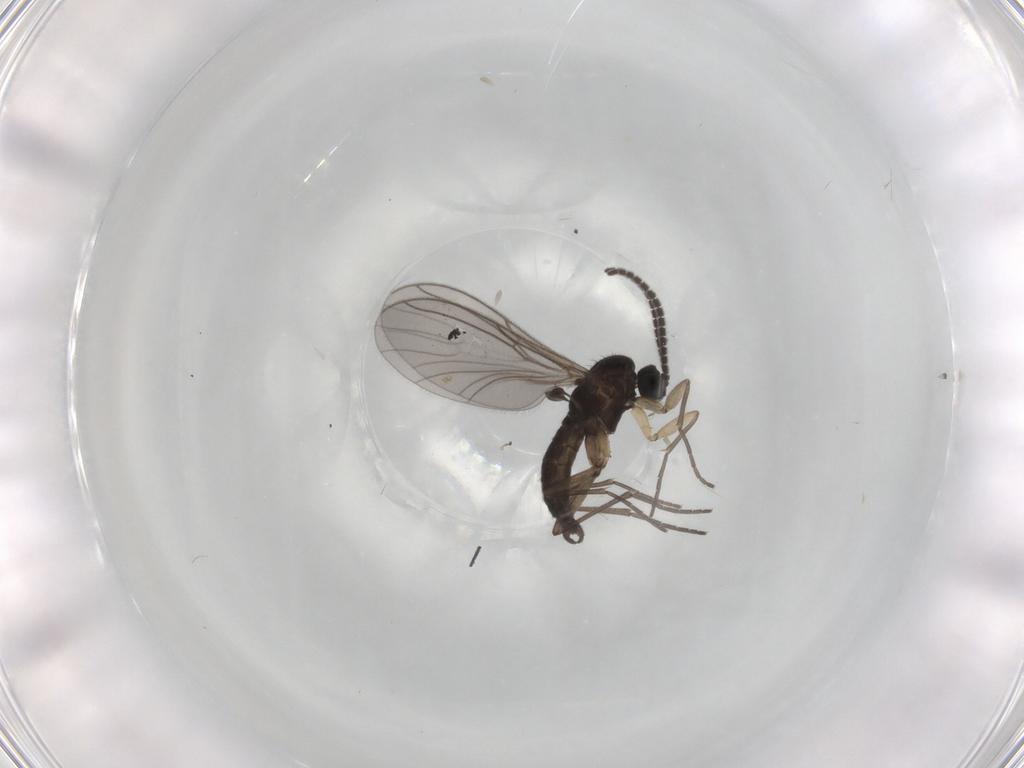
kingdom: Animalia
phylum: Arthropoda
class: Insecta
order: Diptera
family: Sciaridae
